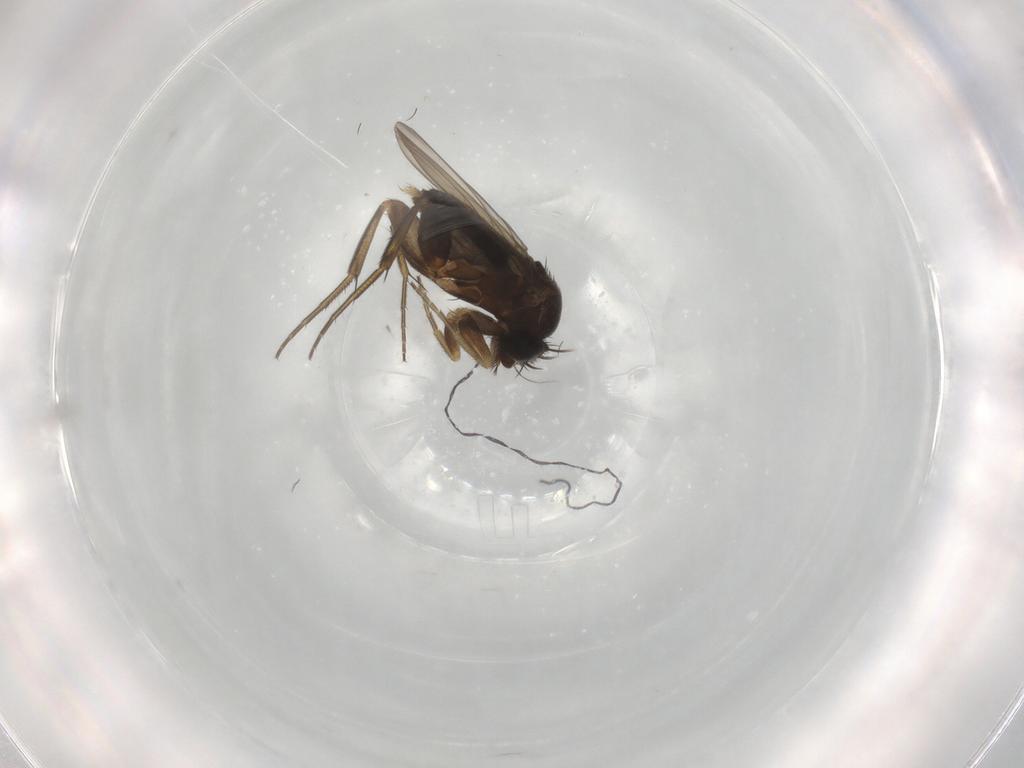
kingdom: Animalia
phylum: Arthropoda
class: Insecta
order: Diptera
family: Phoridae
